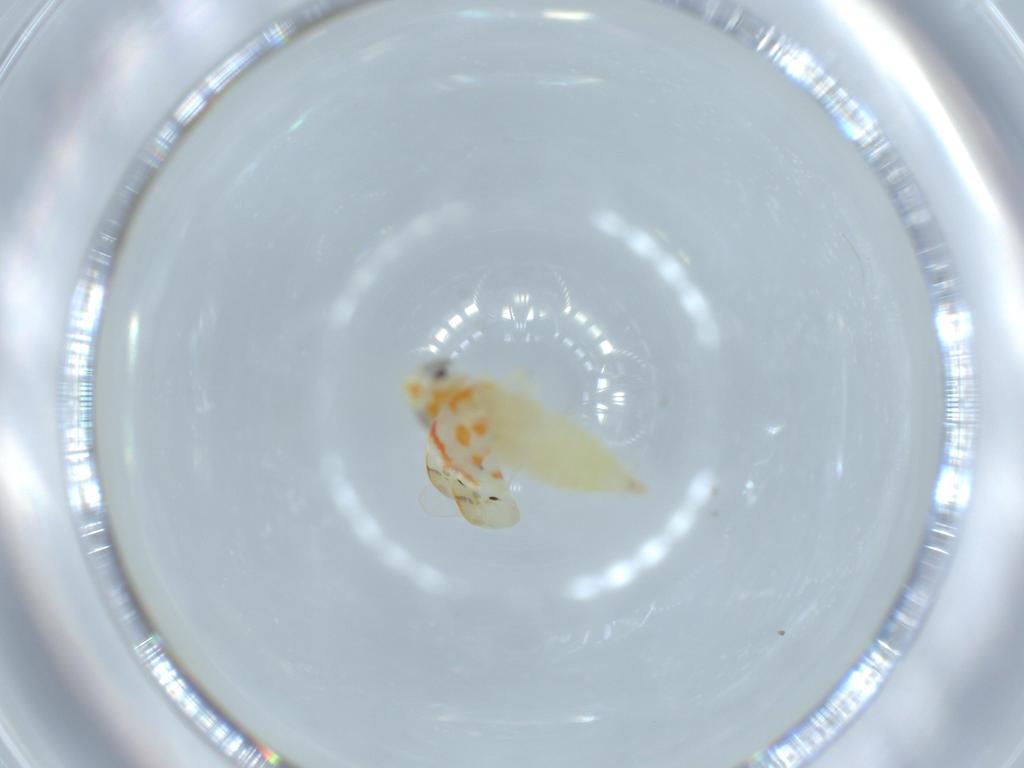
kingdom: Animalia
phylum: Arthropoda
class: Insecta
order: Hemiptera
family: Cicadellidae
